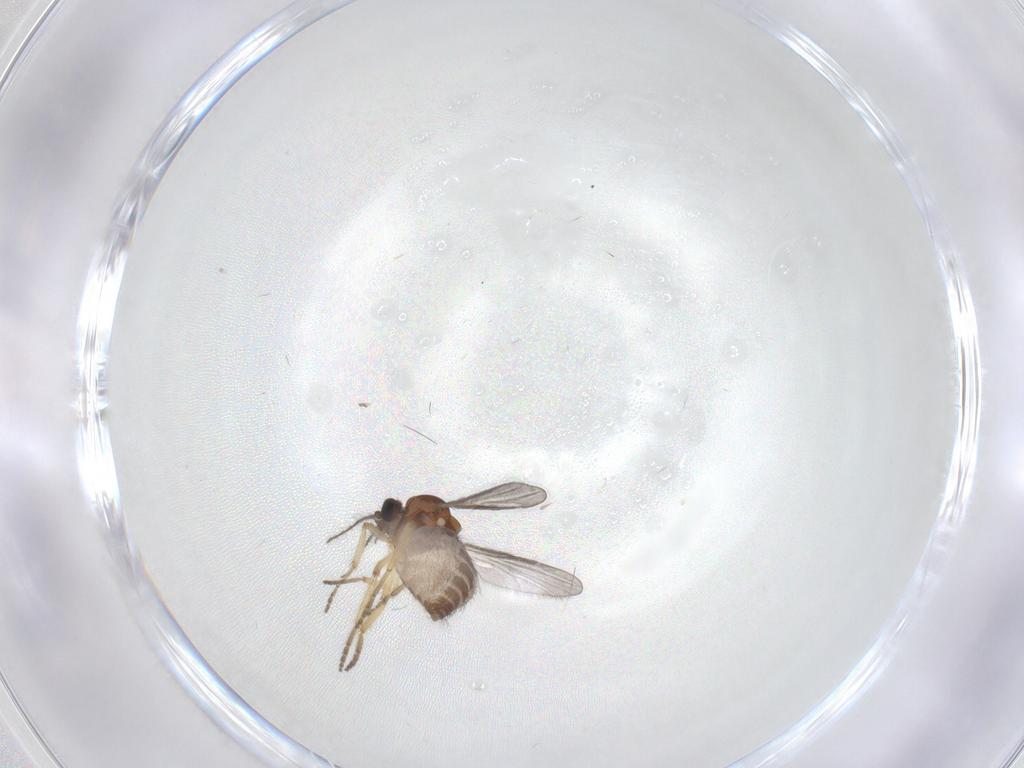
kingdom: Animalia
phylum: Arthropoda
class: Insecta
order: Diptera
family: Ceratopogonidae
